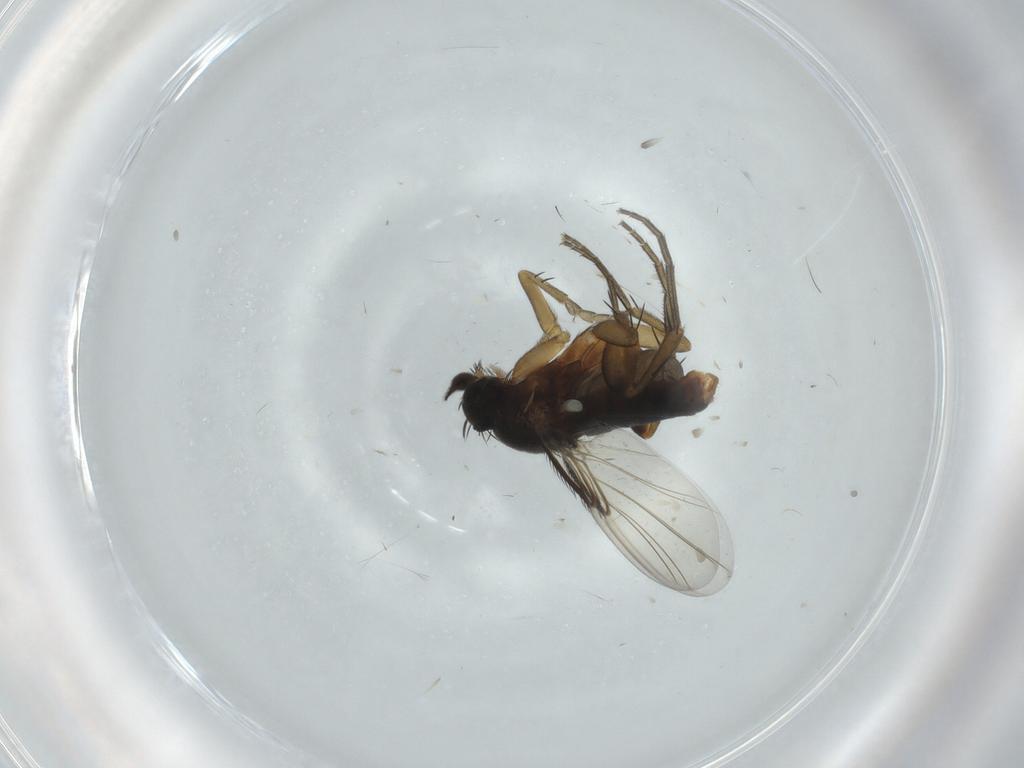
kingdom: Animalia
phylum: Arthropoda
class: Insecta
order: Diptera
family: Phoridae
